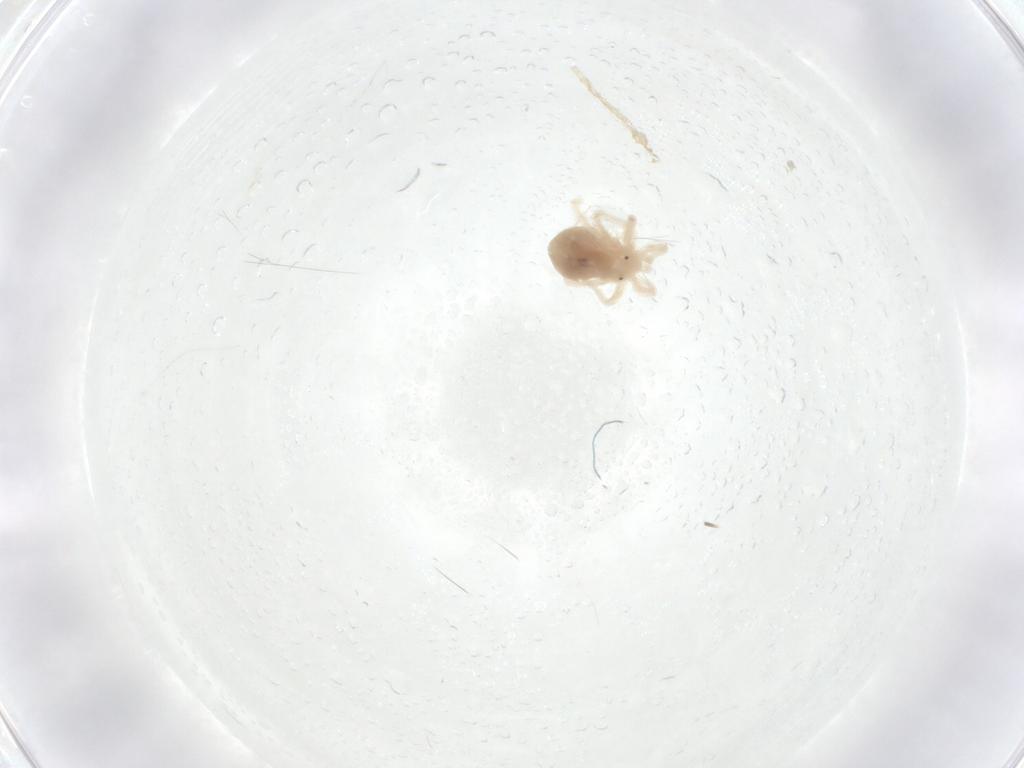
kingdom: Animalia
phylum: Arthropoda
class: Arachnida
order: Trombidiformes
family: Anystidae
